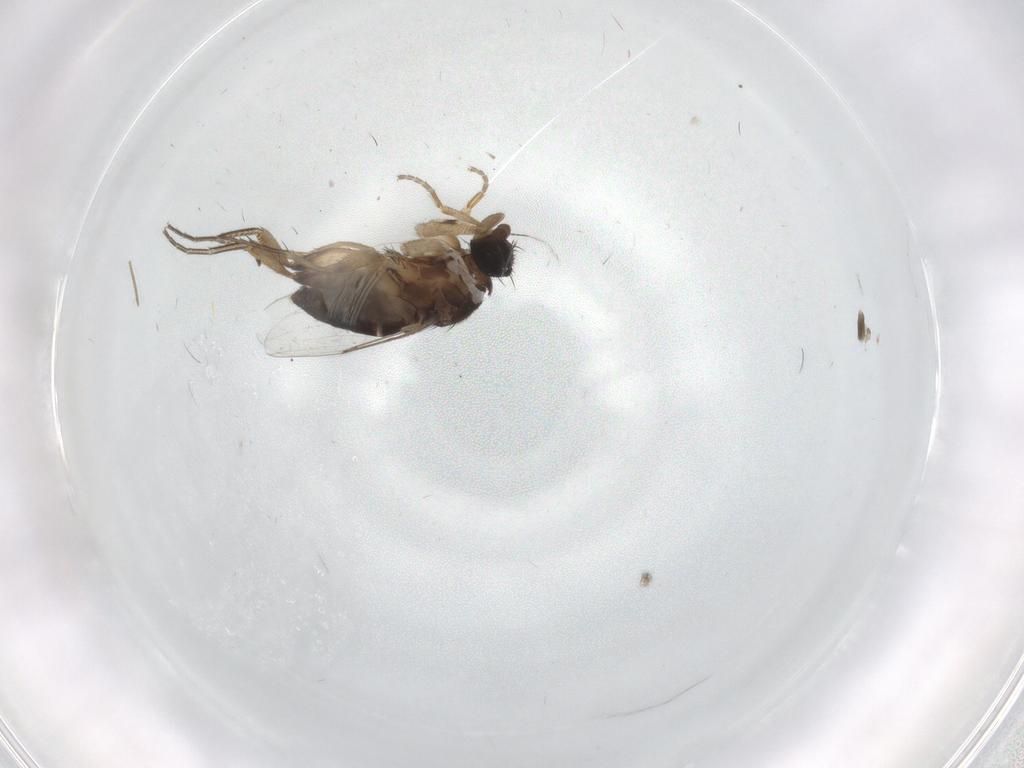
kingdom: Animalia
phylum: Arthropoda
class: Insecta
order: Diptera
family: Phoridae
